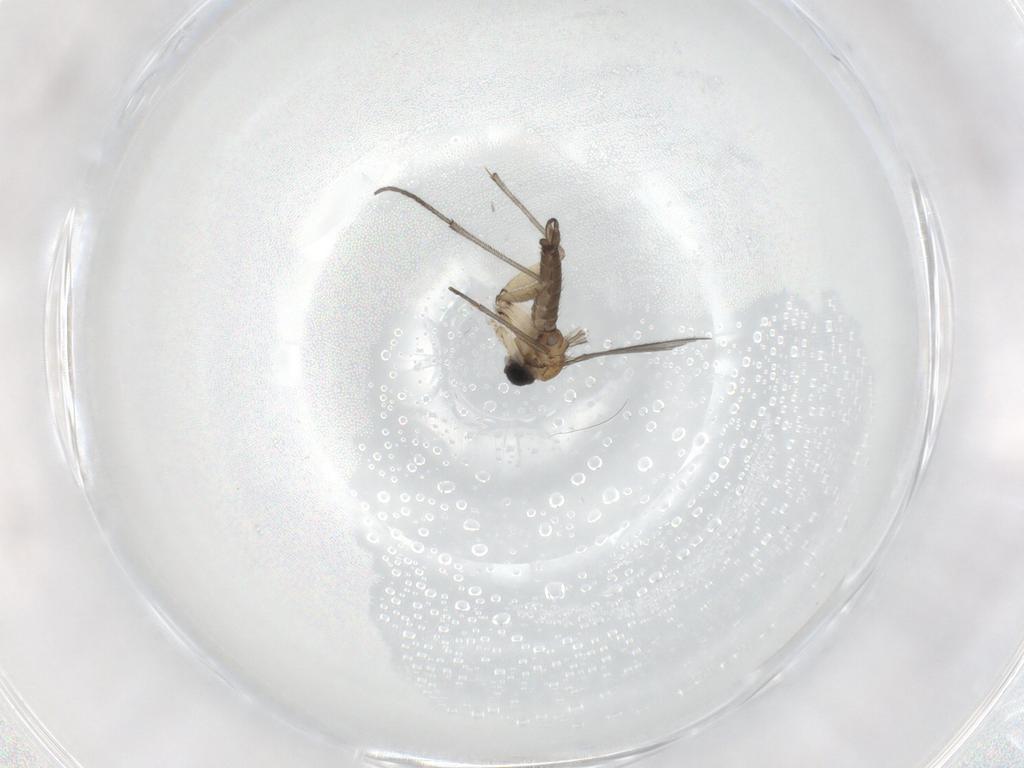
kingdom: Animalia
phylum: Arthropoda
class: Insecta
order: Diptera
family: Sciaridae
